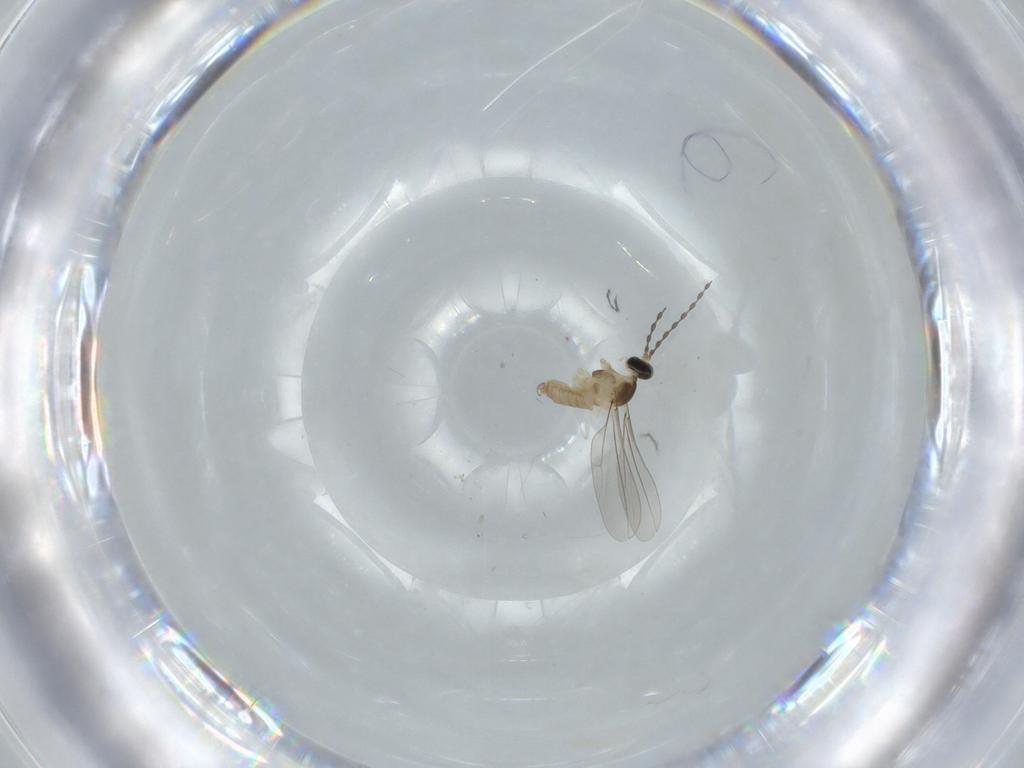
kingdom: Animalia
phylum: Arthropoda
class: Insecta
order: Diptera
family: Cecidomyiidae
